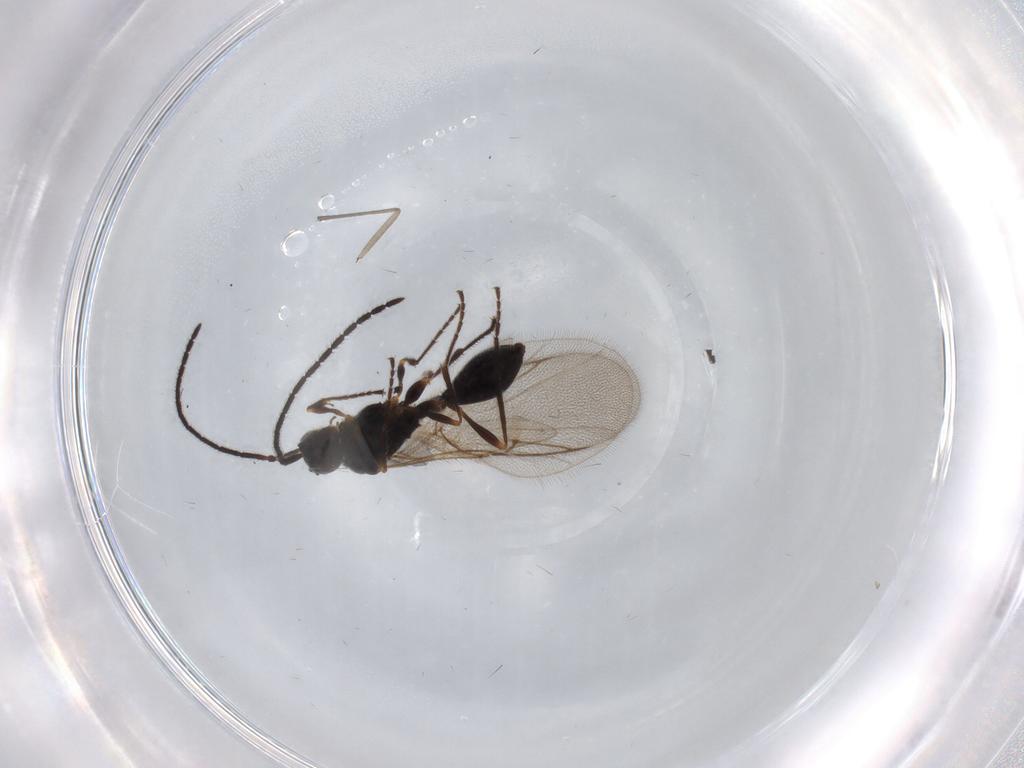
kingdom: Animalia
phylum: Arthropoda
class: Insecta
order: Hymenoptera
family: Diapriidae
